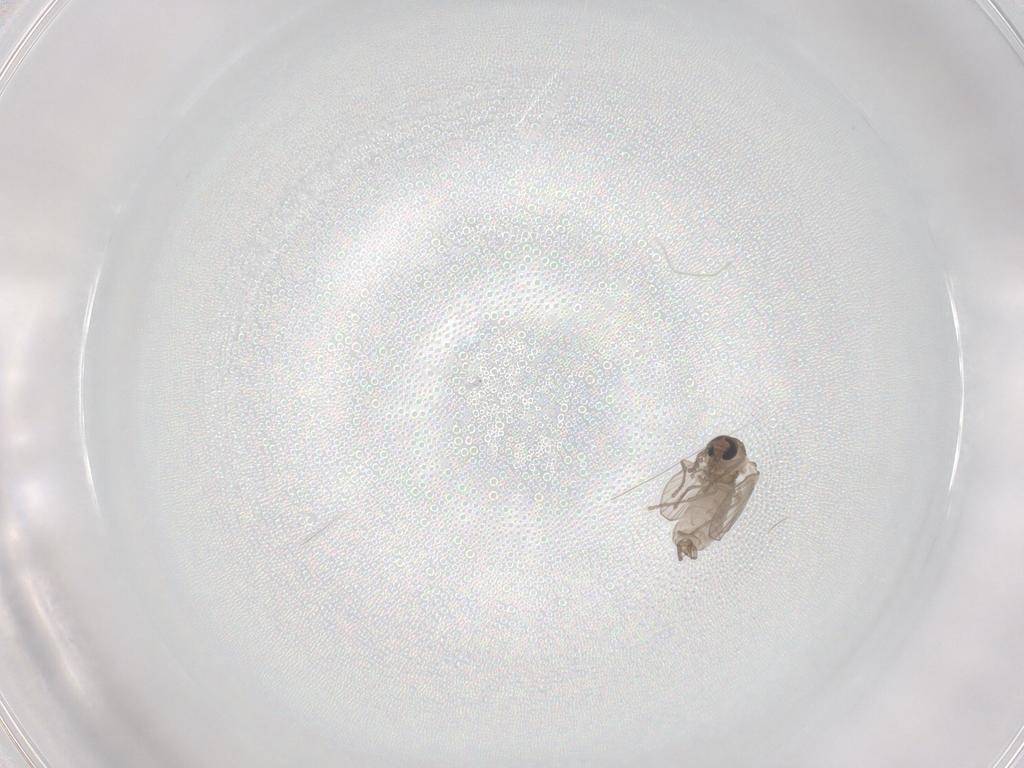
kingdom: Animalia
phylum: Arthropoda
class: Insecta
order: Diptera
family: Psychodidae
